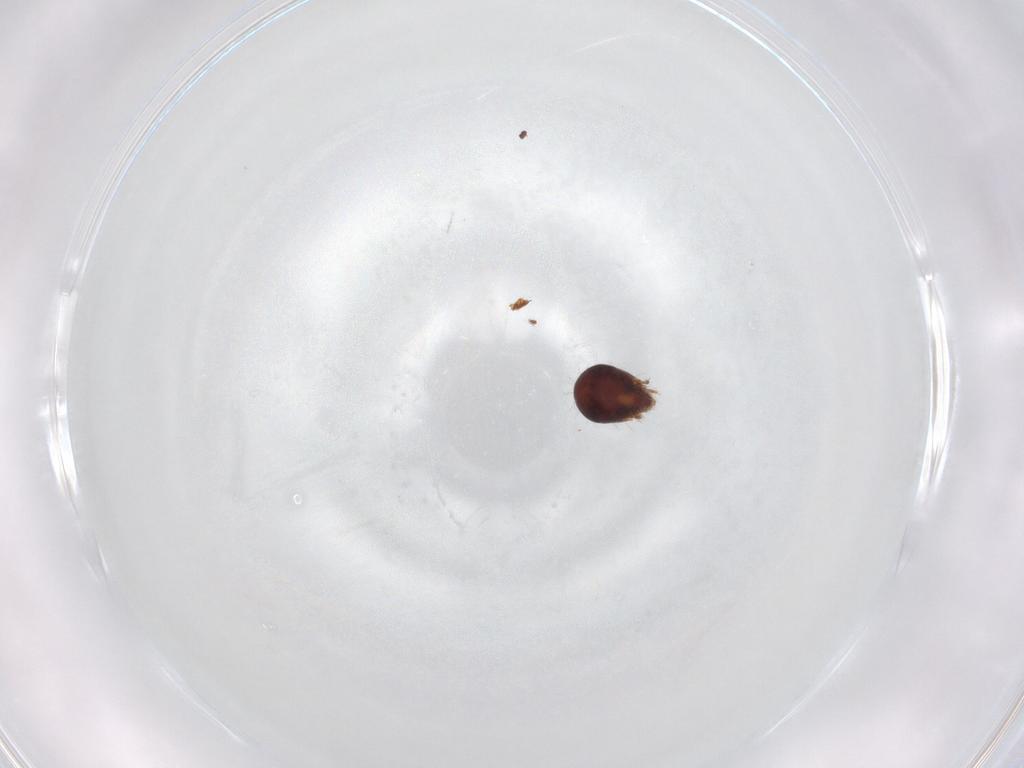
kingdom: Animalia
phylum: Arthropoda
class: Arachnida
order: Sarcoptiformes
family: Humerobatidae
